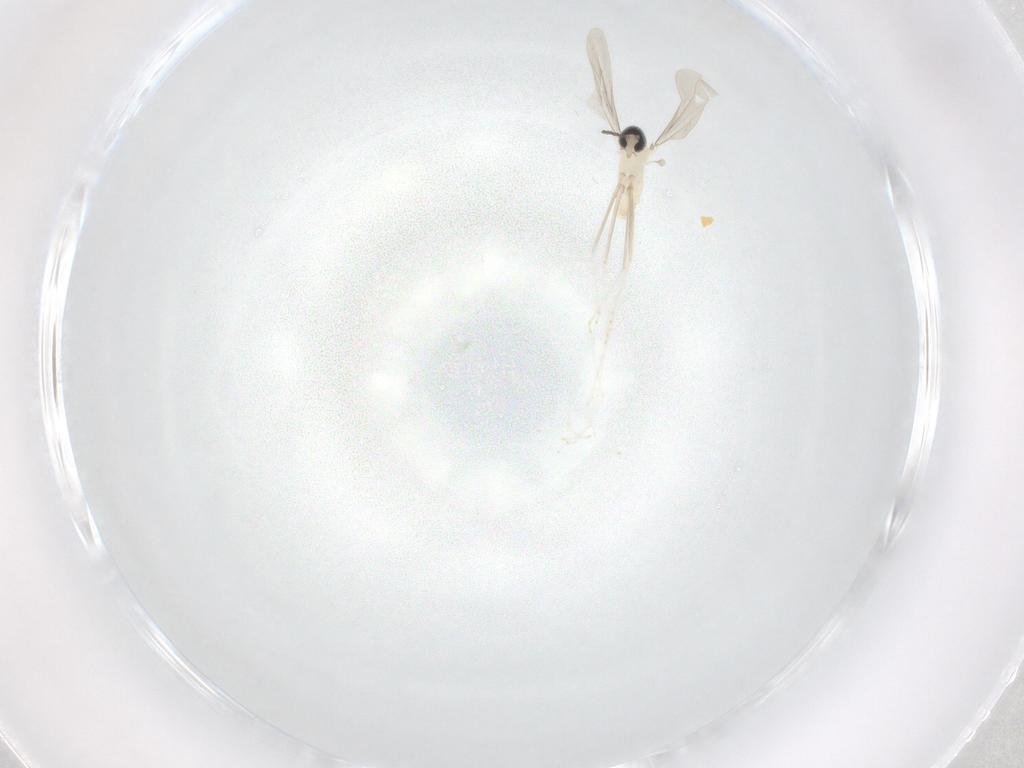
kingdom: Animalia
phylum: Arthropoda
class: Insecta
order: Diptera
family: Cecidomyiidae
